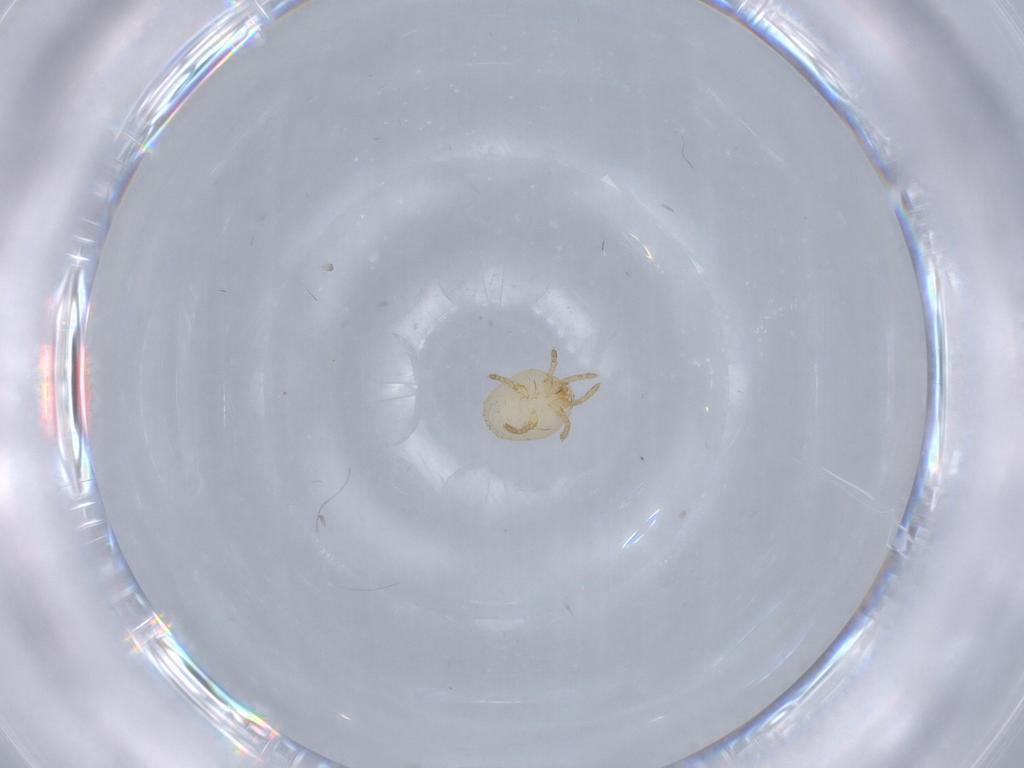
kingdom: Animalia
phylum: Arthropoda
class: Arachnida
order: Trombidiformes
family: Calyptostomatidae
